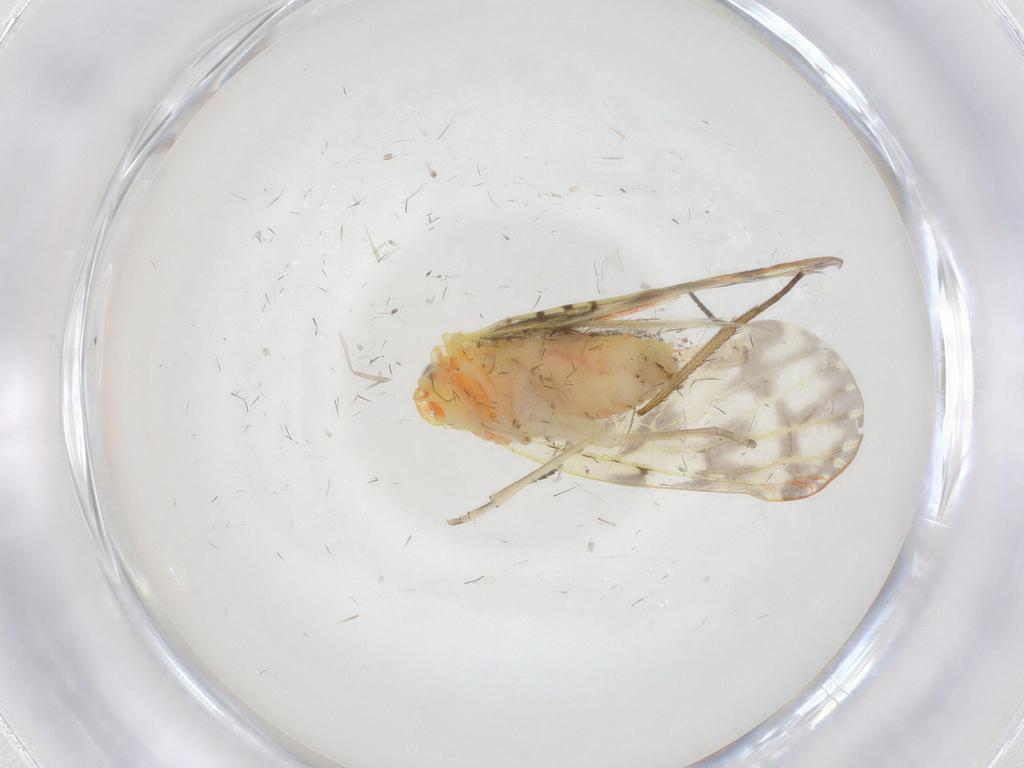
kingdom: Animalia
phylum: Arthropoda
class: Insecta
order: Hemiptera
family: Derbidae
